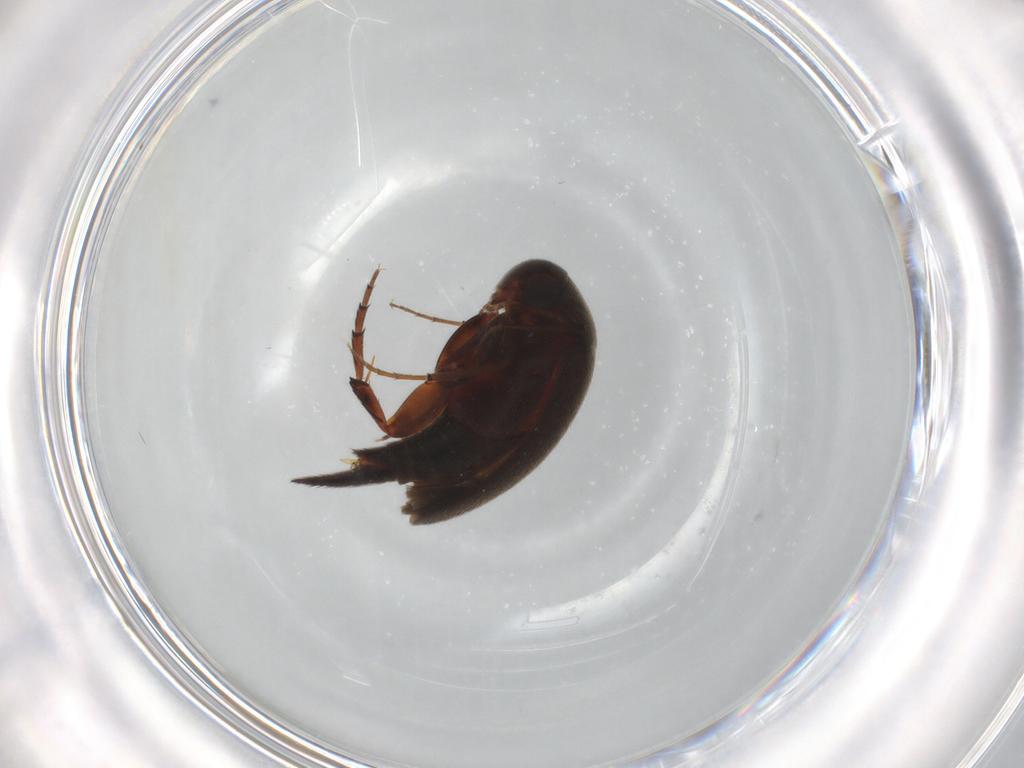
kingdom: Animalia
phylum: Arthropoda
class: Insecta
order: Coleoptera
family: Mordellidae
